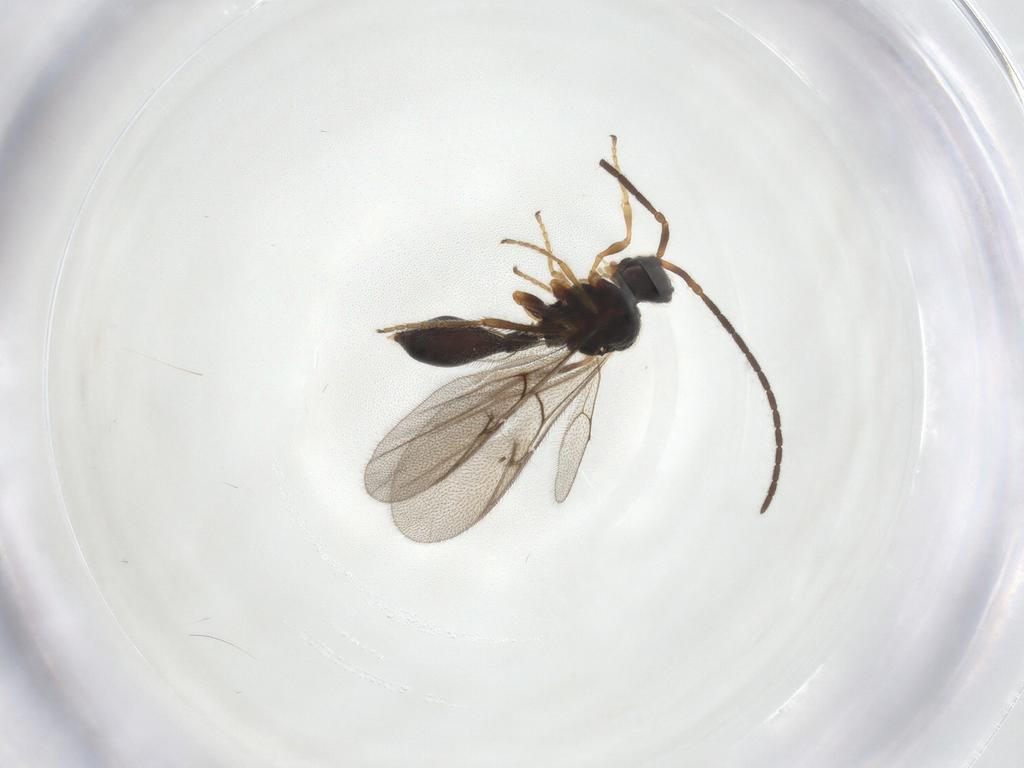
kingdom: Animalia
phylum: Arthropoda
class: Insecta
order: Hymenoptera
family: Diapriidae
